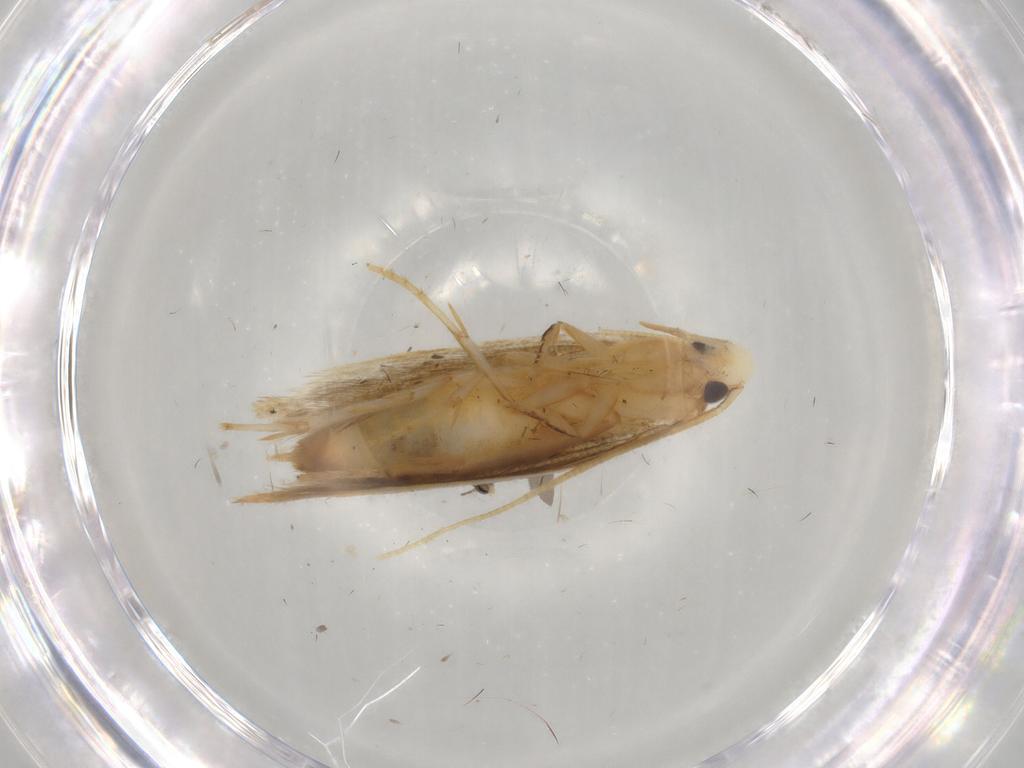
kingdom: Animalia
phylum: Arthropoda
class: Insecta
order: Lepidoptera
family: Tineidae
